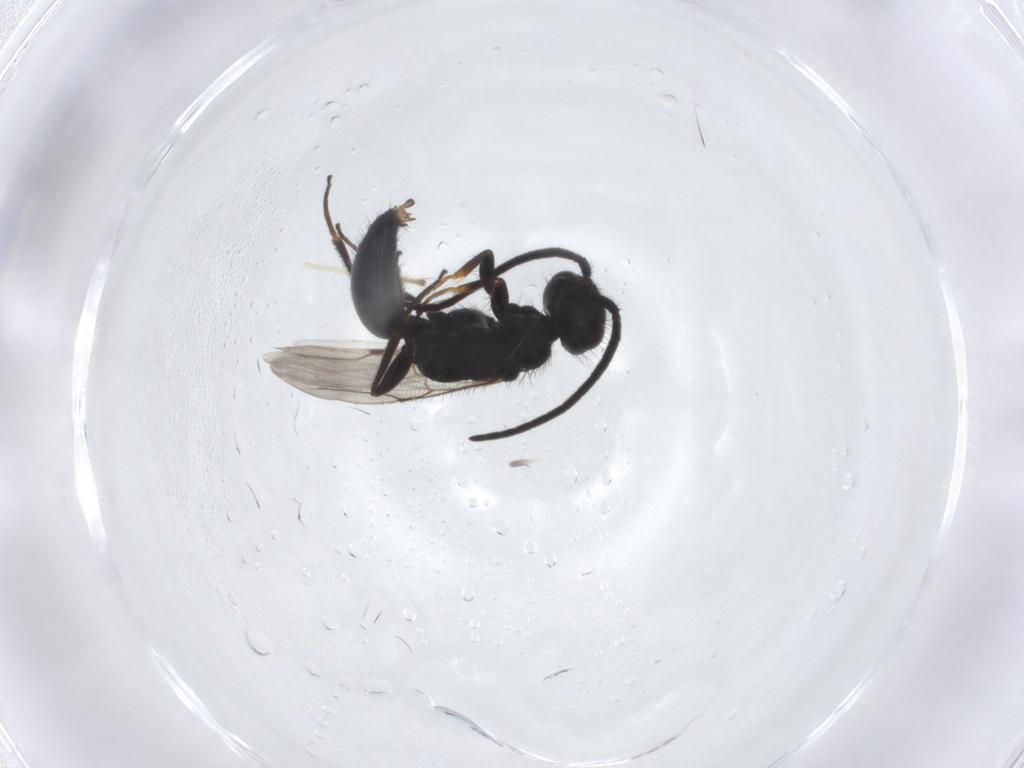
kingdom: Animalia
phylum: Arthropoda
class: Insecta
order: Hymenoptera
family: Bethylidae
